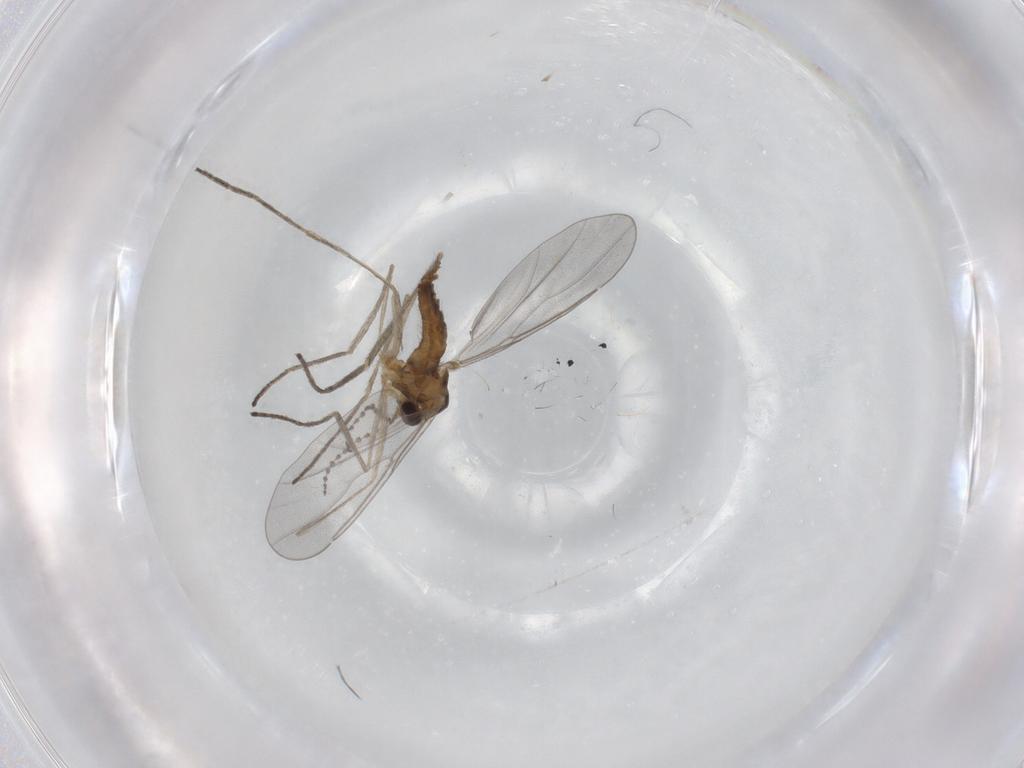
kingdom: Animalia
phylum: Arthropoda
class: Insecta
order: Diptera
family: Cecidomyiidae
